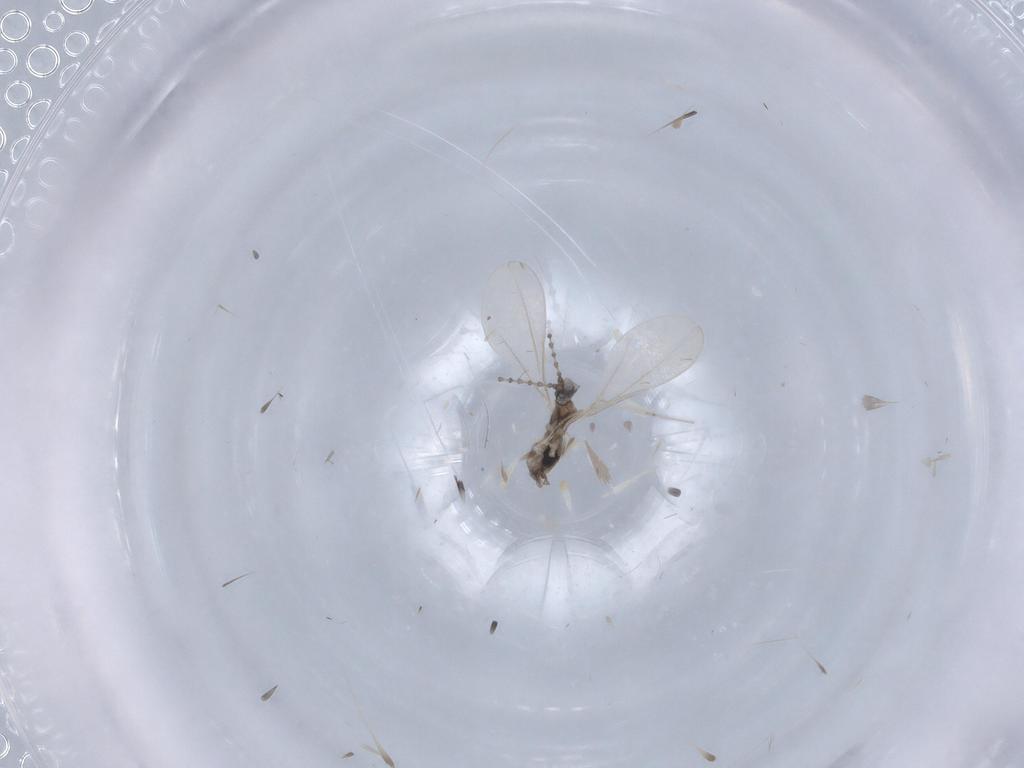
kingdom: Animalia
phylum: Arthropoda
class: Insecta
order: Diptera
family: Cecidomyiidae
